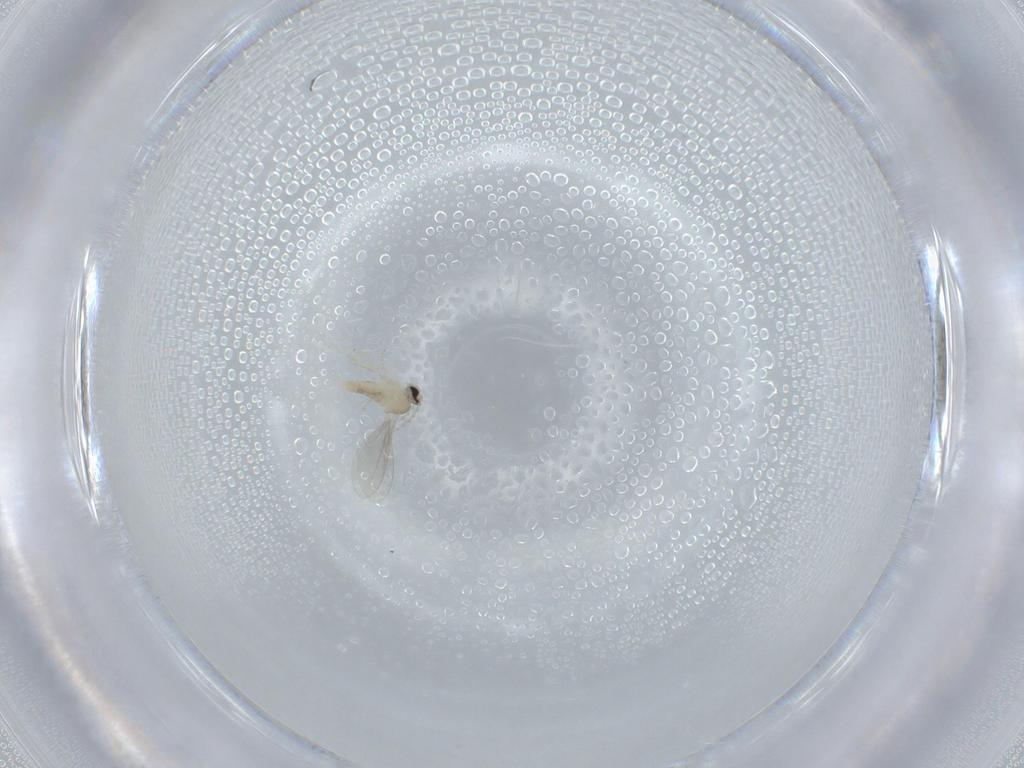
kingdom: Animalia
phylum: Arthropoda
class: Insecta
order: Diptera
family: Cecidomyiidae
